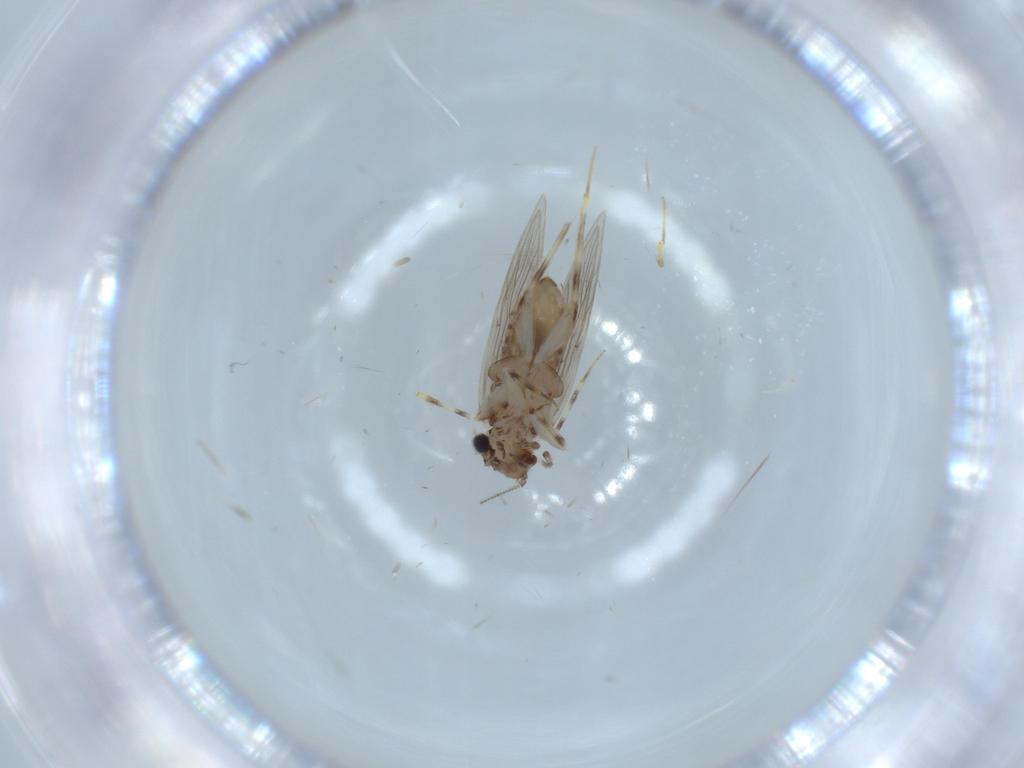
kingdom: Animalia
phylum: Arthropoda
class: Insecta
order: Psocodea
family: Lepidopsocidae
